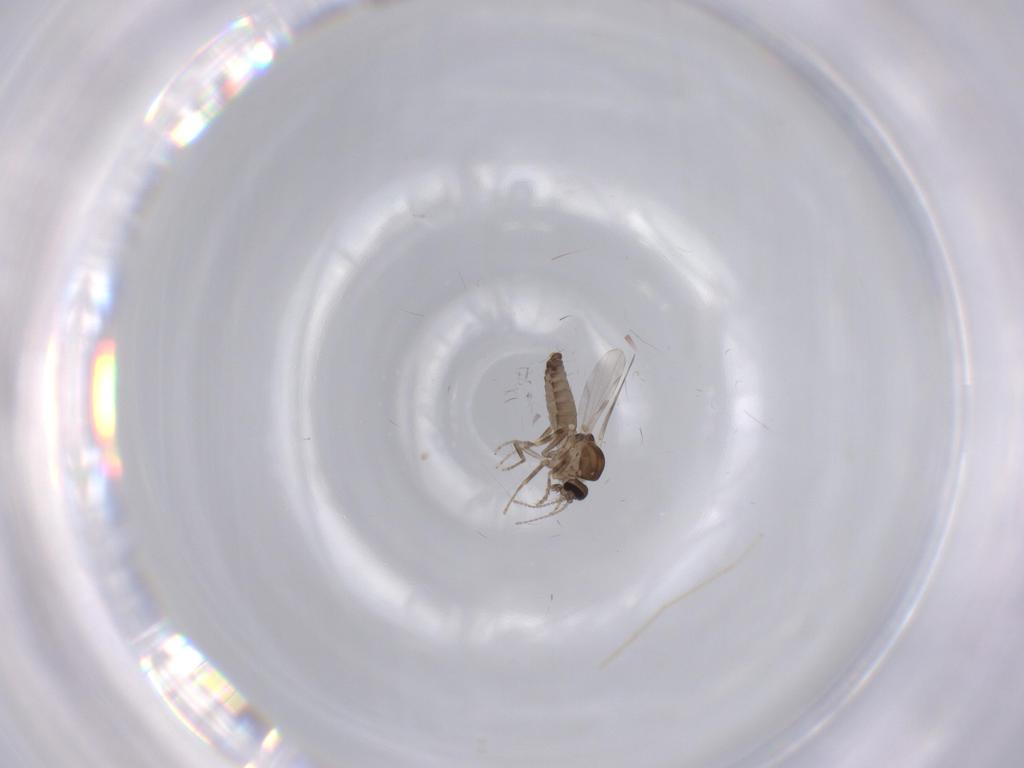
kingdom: Animalia
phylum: Arthropoda
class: Insecta
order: Diptera
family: Ceratopogonidae
